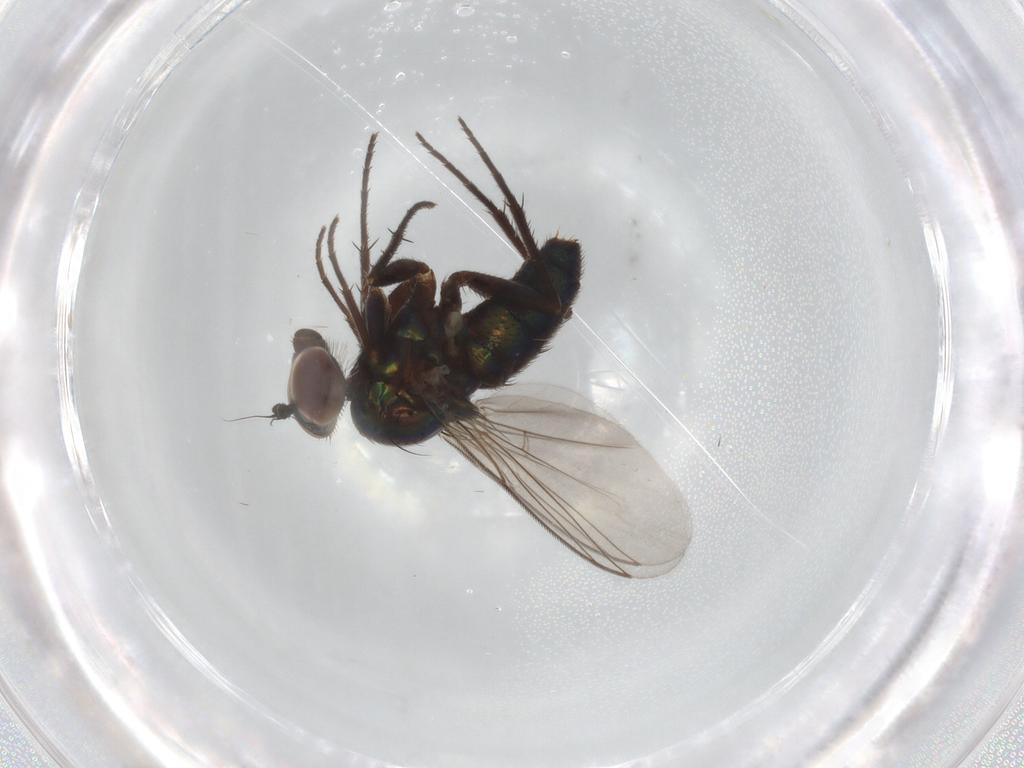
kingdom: Animalia
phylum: Arthropoda
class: Insecta
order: Diptera
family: Dolichopodidae
